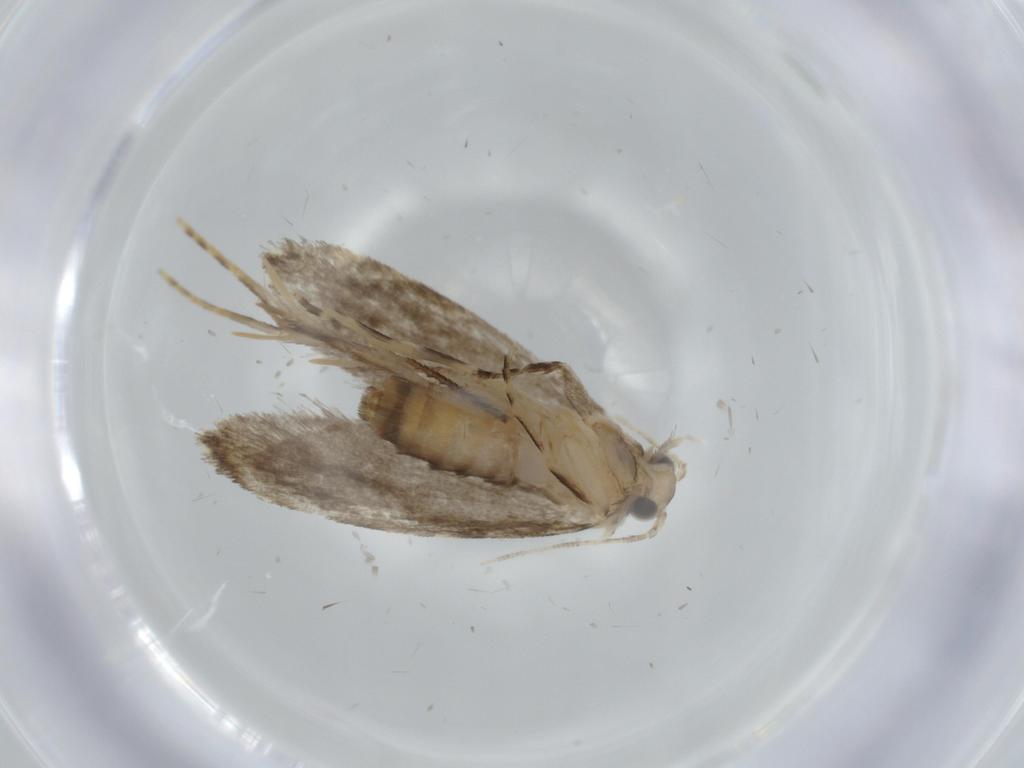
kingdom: Animalia
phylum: Arthropoda
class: Insecta
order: Lepidoptera
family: Tineidae
